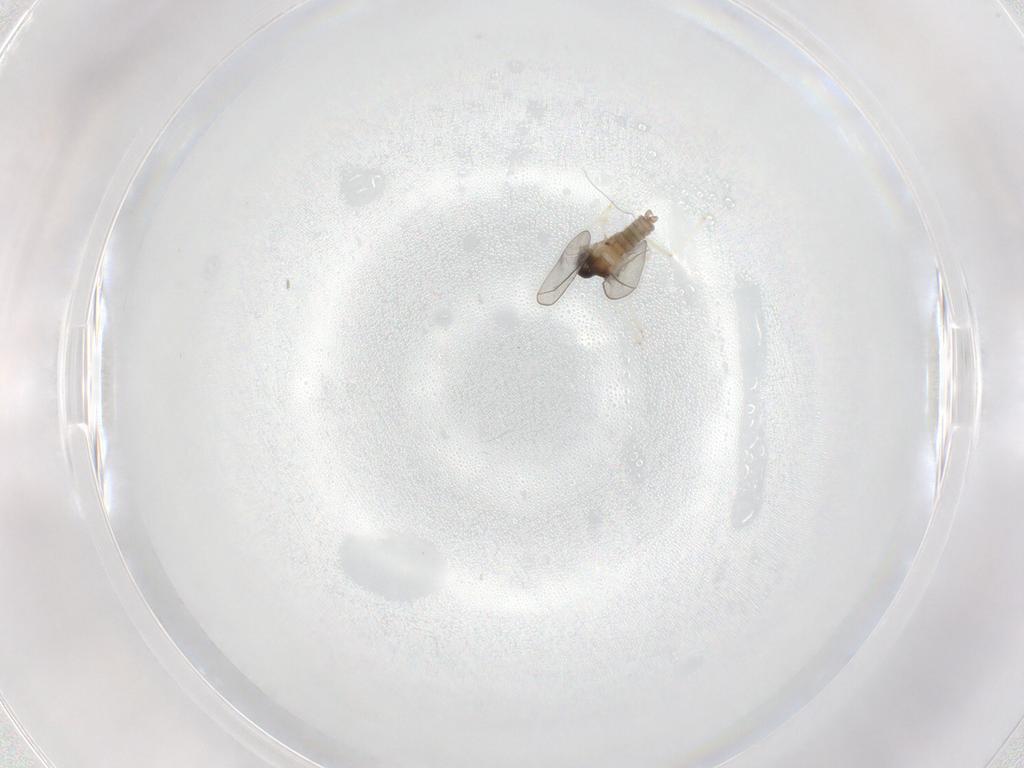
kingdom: Animalia
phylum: Arthropoda
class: Insecta
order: Diptera
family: Cecidomyiidae
